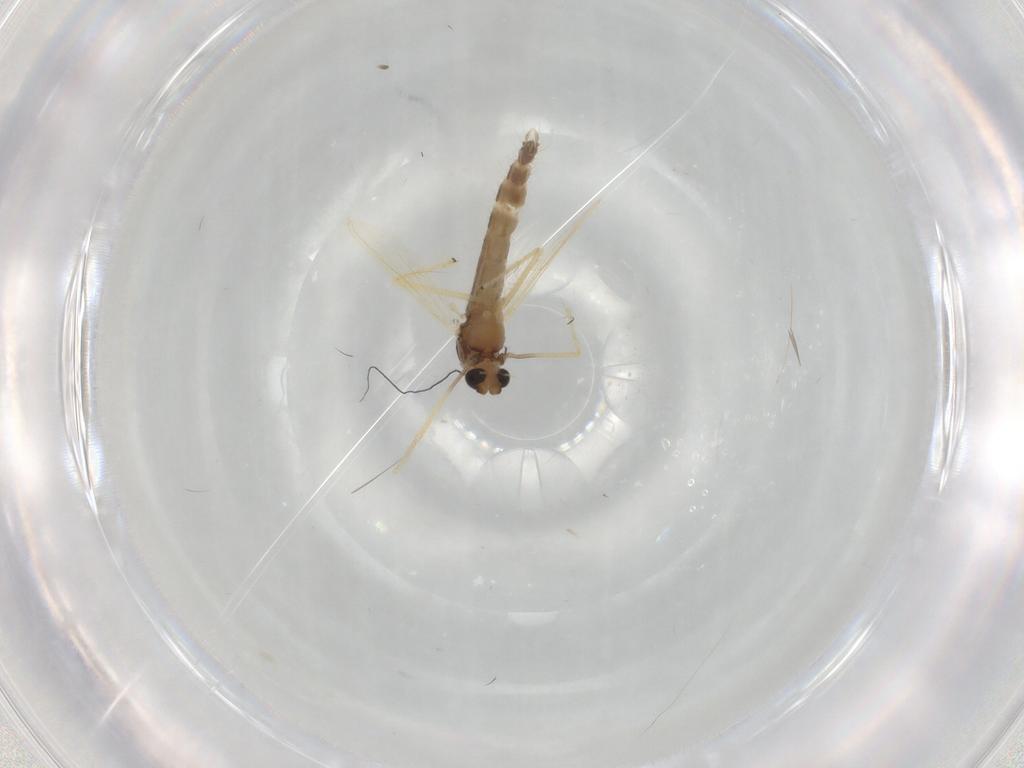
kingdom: Animalia
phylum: Arthropoda
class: Insecta
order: Diptera
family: Chironomidae
